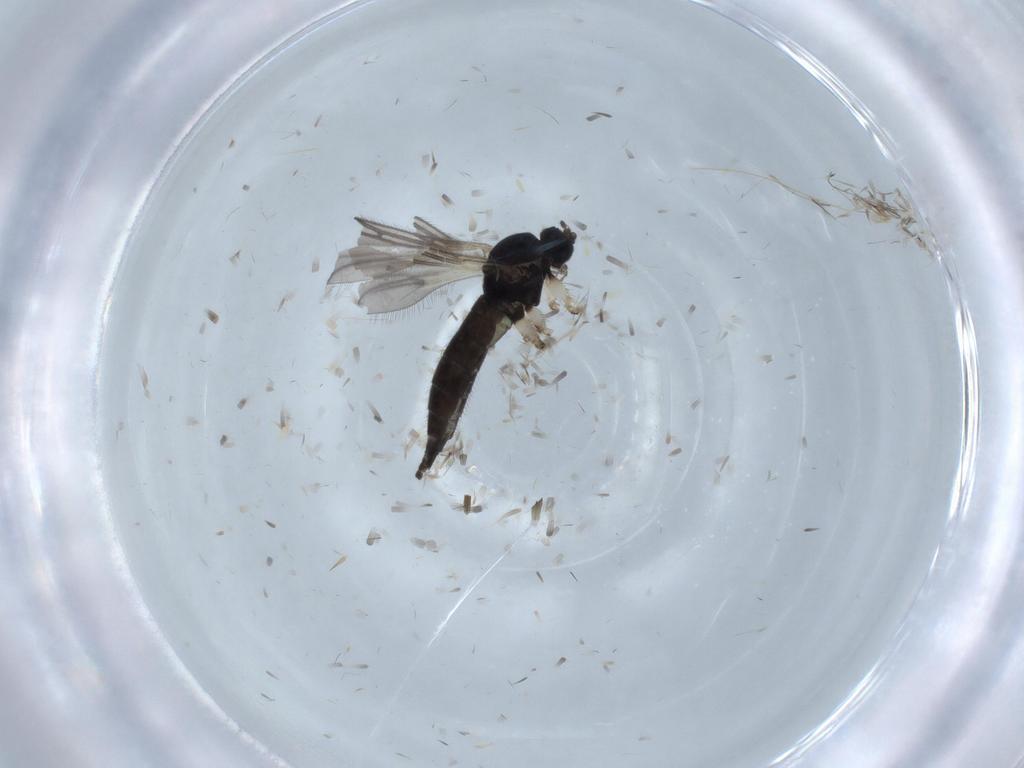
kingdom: Animalia
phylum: Arthropoda
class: Insecta
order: Diptera
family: Sciaridae
